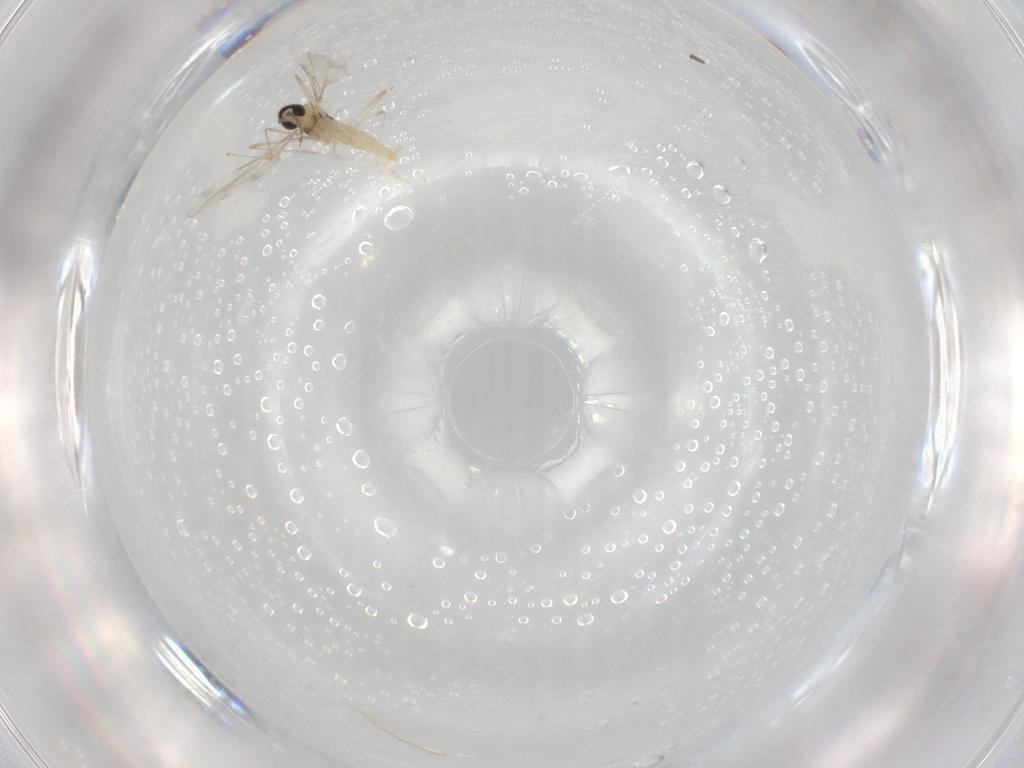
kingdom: Animalia
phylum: Arthropoda
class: Insecta
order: Diptera
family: Cecidomyiidae
